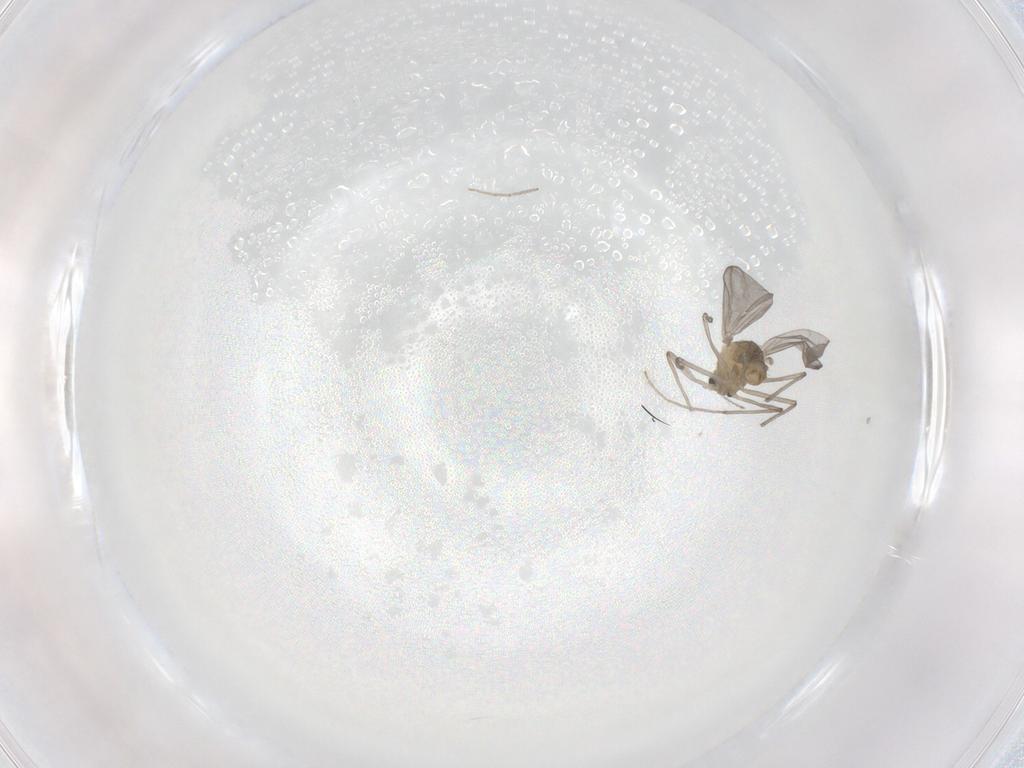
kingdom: Animalia
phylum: Arthropoda
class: Insecta
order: Diptera
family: Chironomidae
